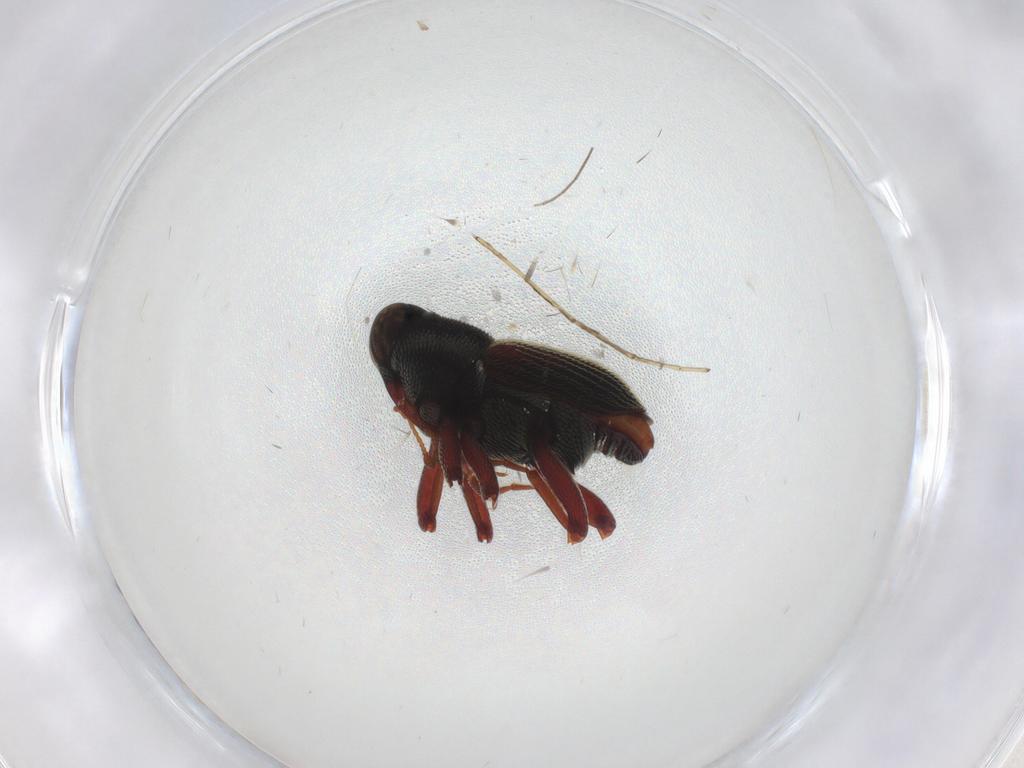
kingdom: Animalia
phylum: Arthropoda
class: Insecta
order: Coleoptera
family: Curculionidae
